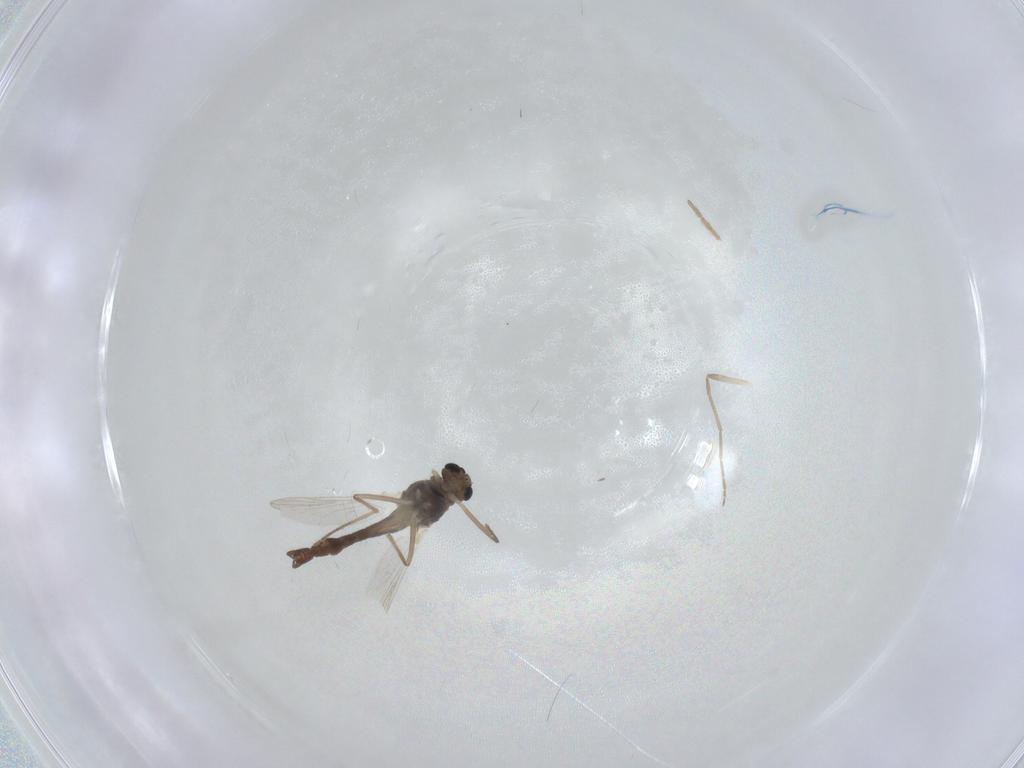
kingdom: Animalia
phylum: Arthropoda
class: Insecta
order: Diptera
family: Chironomidae
